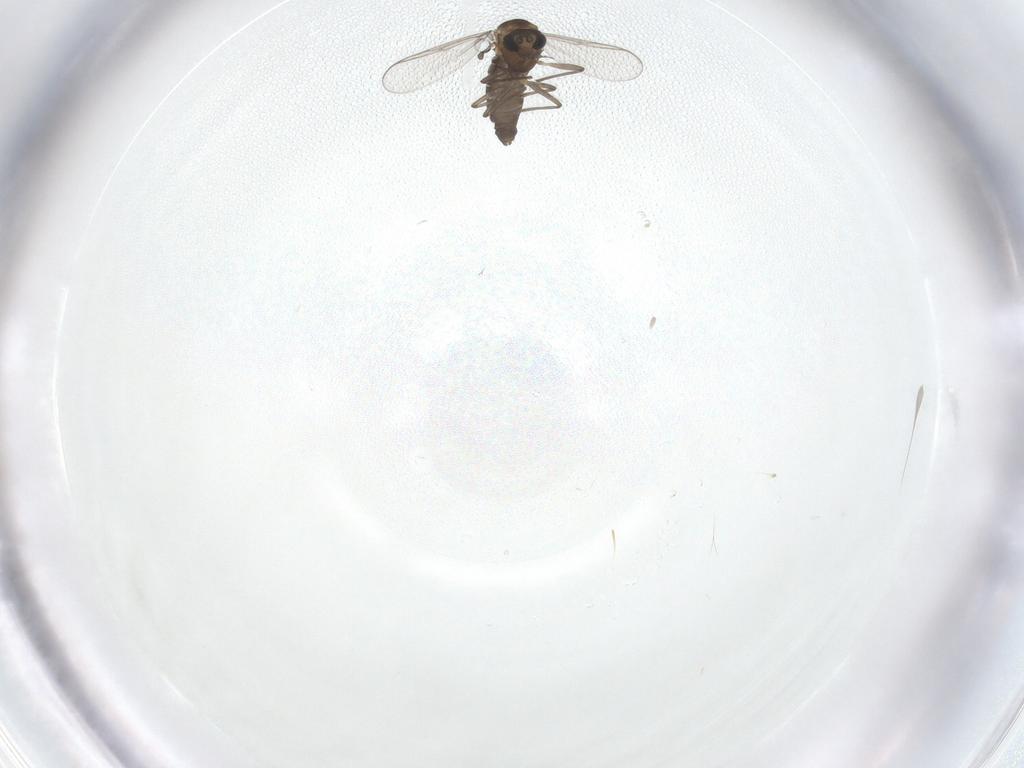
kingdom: Animalia
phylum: Arthropoda
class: Insecta
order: Diptera
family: Chironomidae
